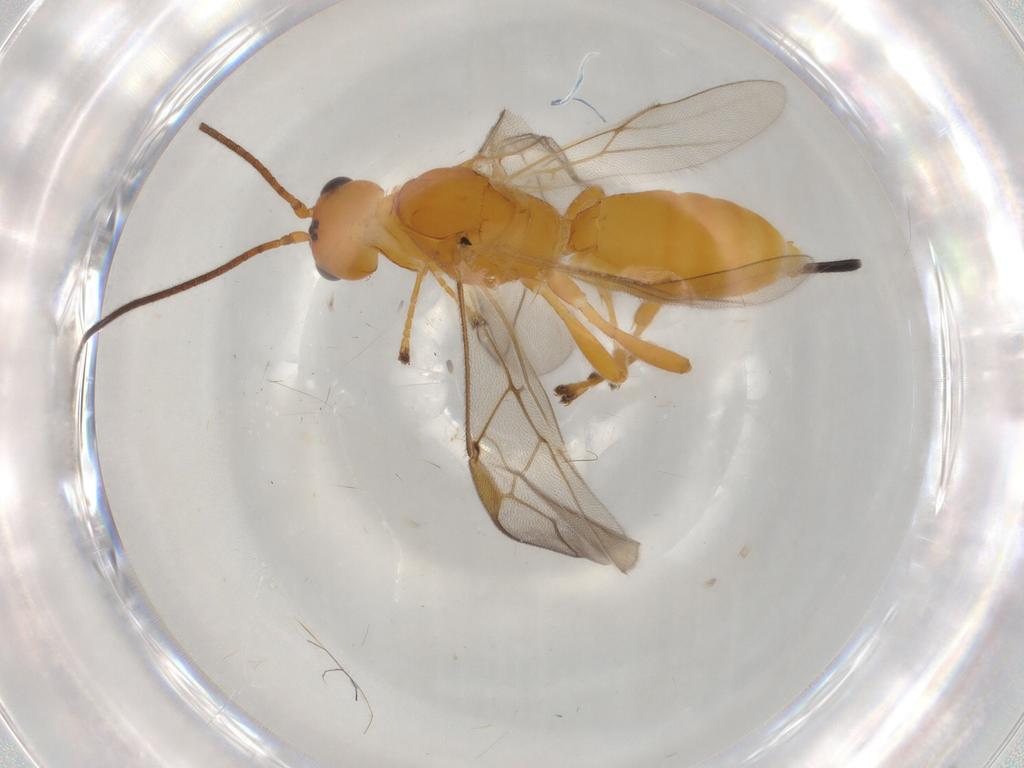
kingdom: Animalia
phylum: Arthropoda
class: Insecta
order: Hymenoptera
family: Braconidae
